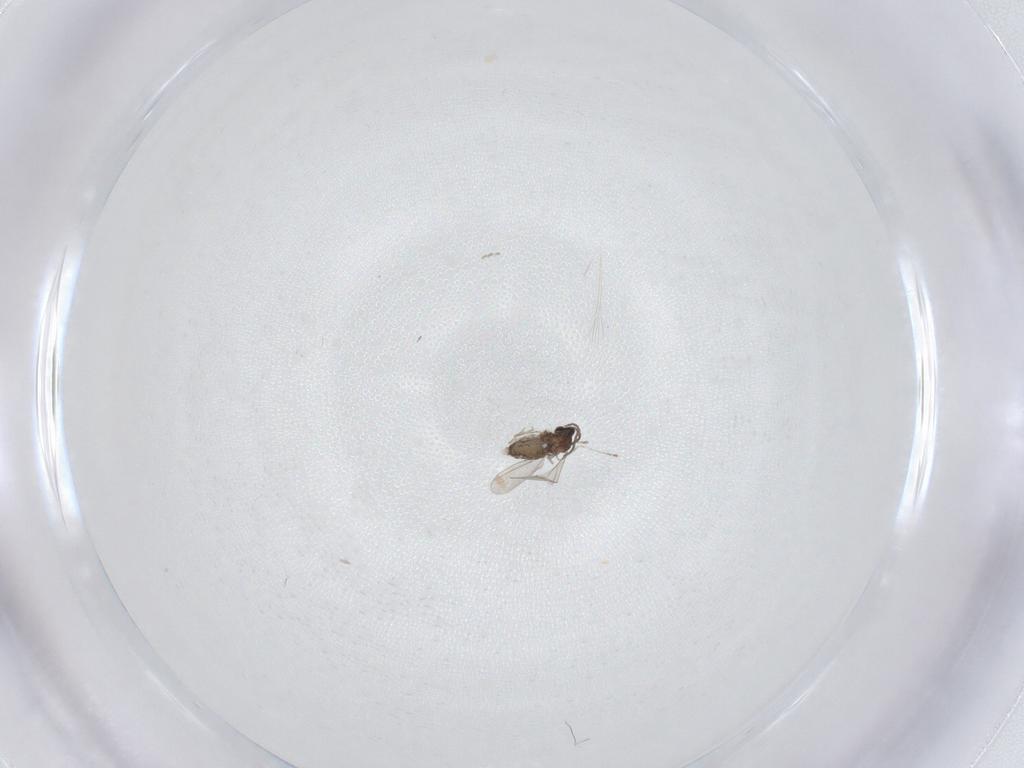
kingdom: Animalia
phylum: Arthropoda
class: Insecta
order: Diptera
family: Cecidomyiidae
